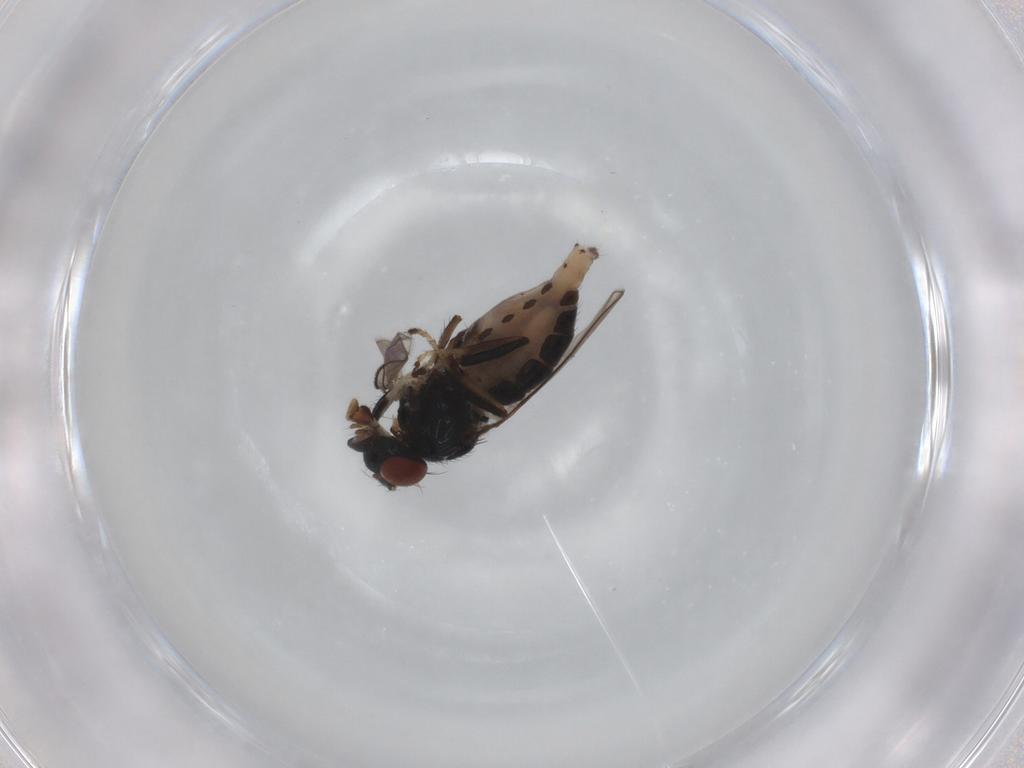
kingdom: Animalia
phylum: Arthropoda
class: Insecta
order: Diptera
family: Ephydridae
